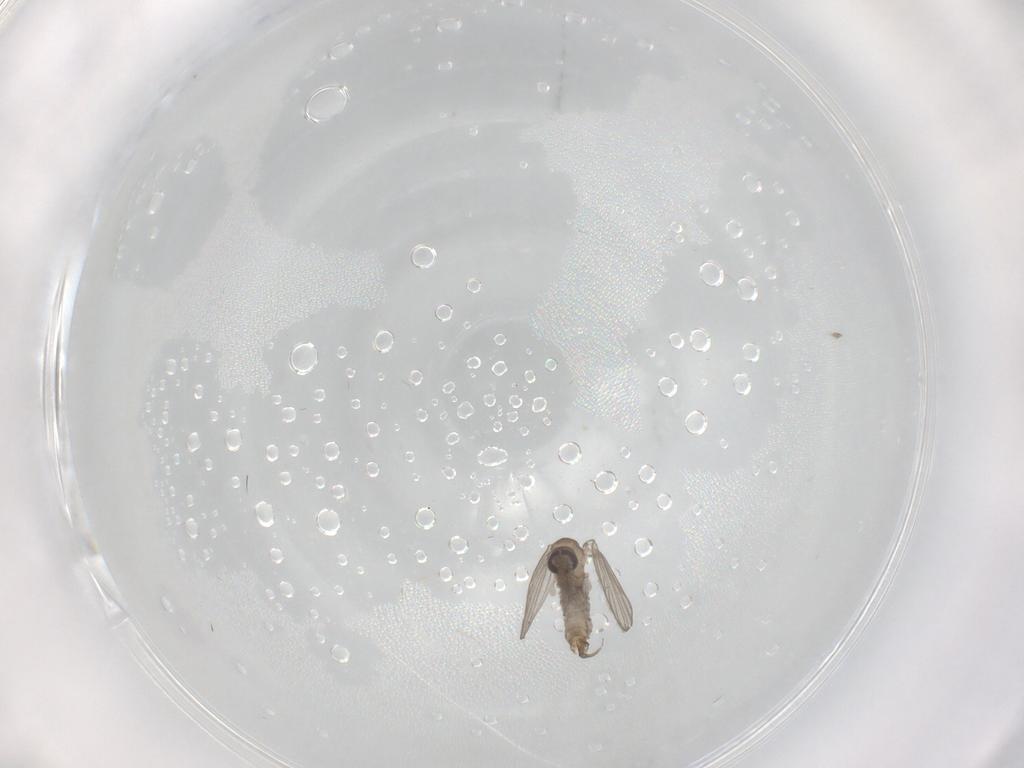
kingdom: Animalia
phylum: Arthropoda
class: Insecta
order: Diptera
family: Psychodidae
